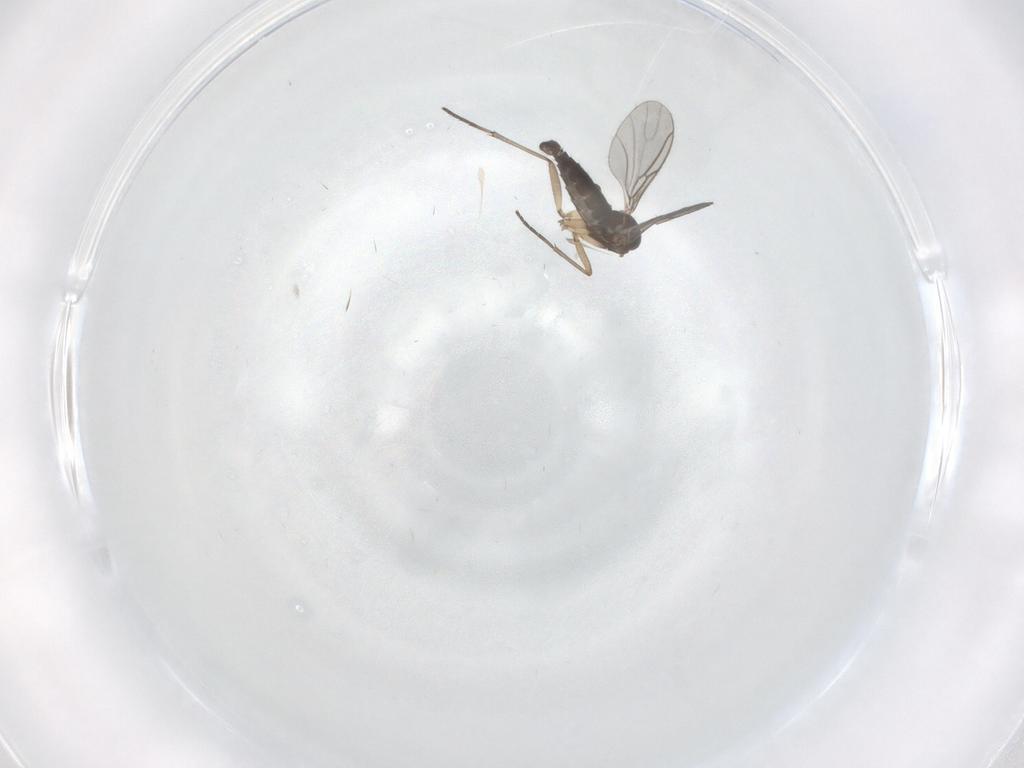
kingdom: Animalia
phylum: Arthropoda
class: Insecta
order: Diptera
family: Sciaridae
